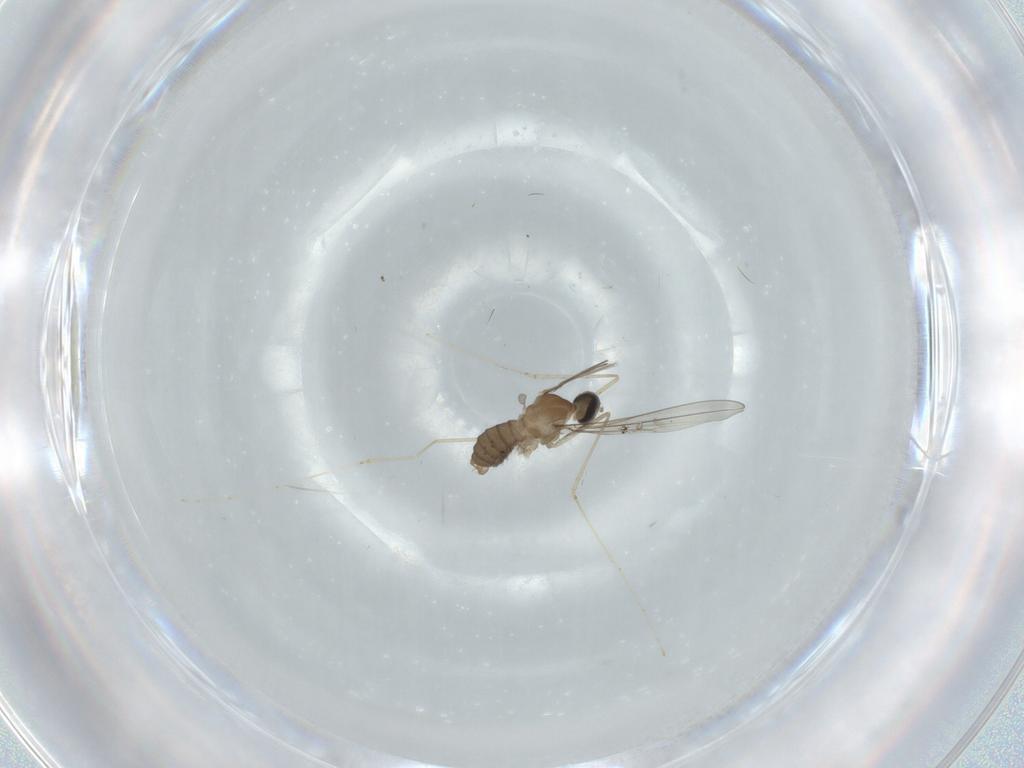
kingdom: Animalia
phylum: Arthropoda
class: Insecta
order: Diptera
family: Cecidomyiidae
